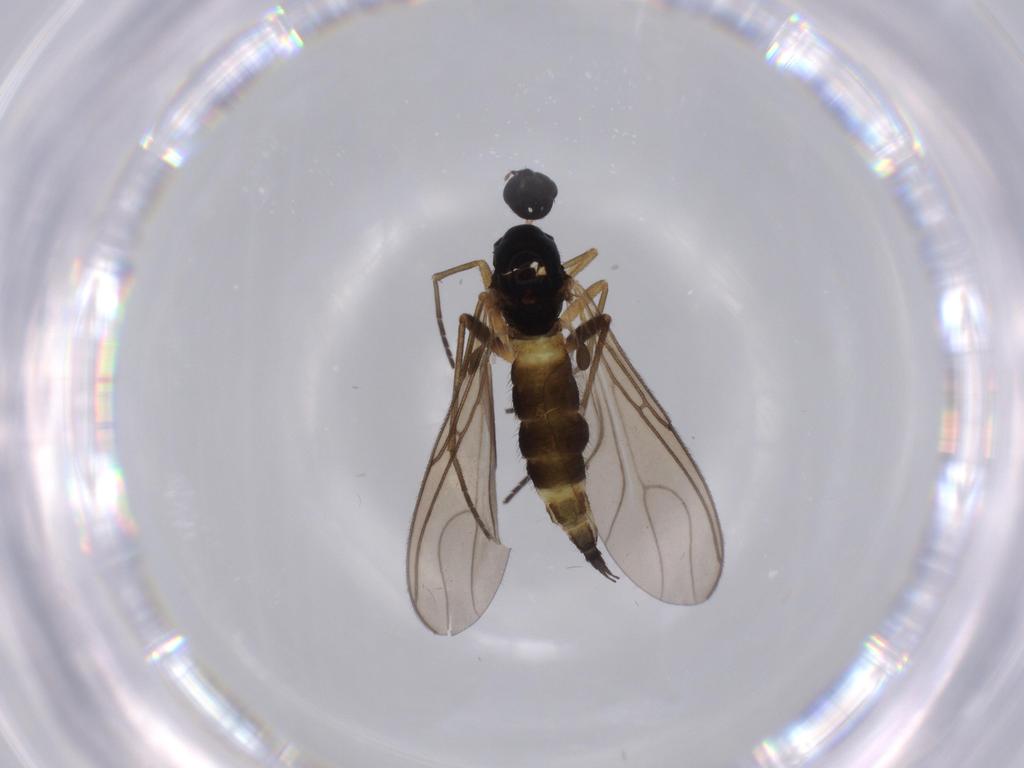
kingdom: Animalia
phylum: Arthropoda
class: Insecta
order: Diptera
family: Sciaridae
